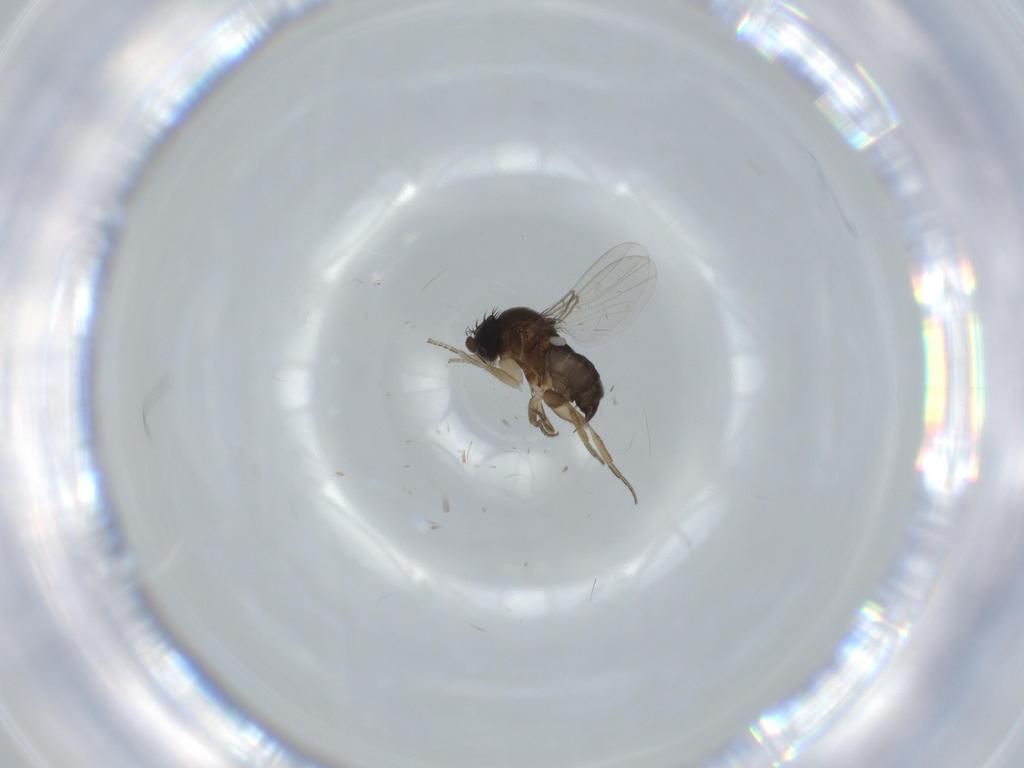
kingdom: Animalia
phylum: Arthropoda
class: Insecta
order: Diptera
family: Phoridae
